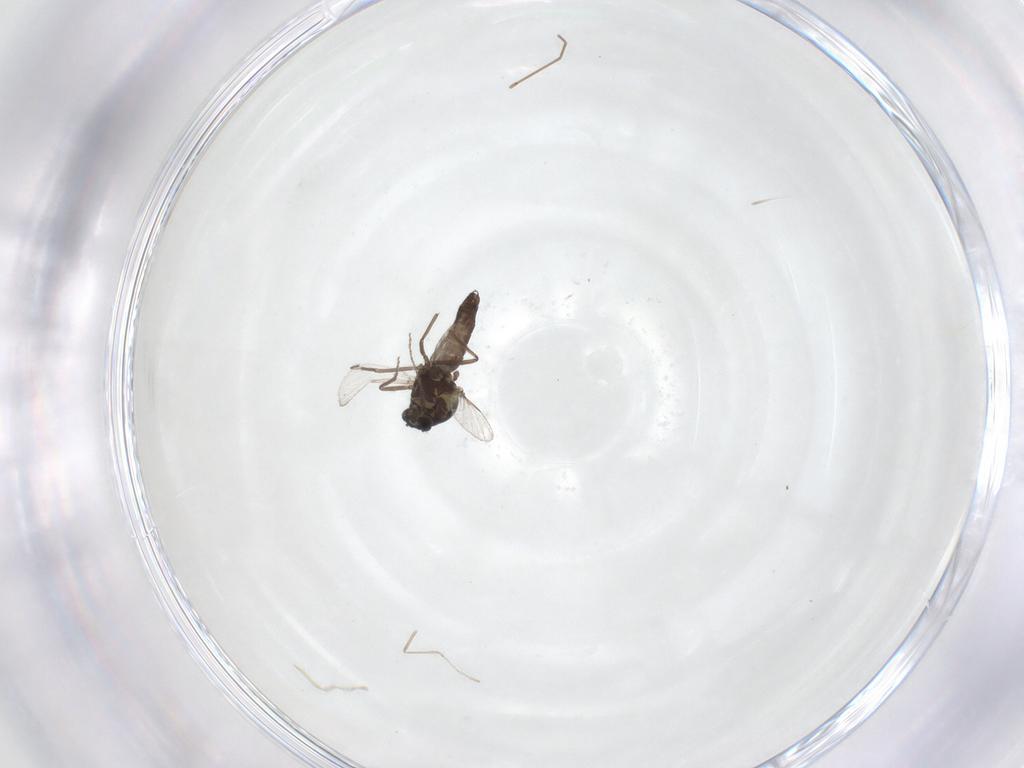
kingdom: Animalia
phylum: Arthropoda
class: Insecta
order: Diptera
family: Ceratopogonidae
